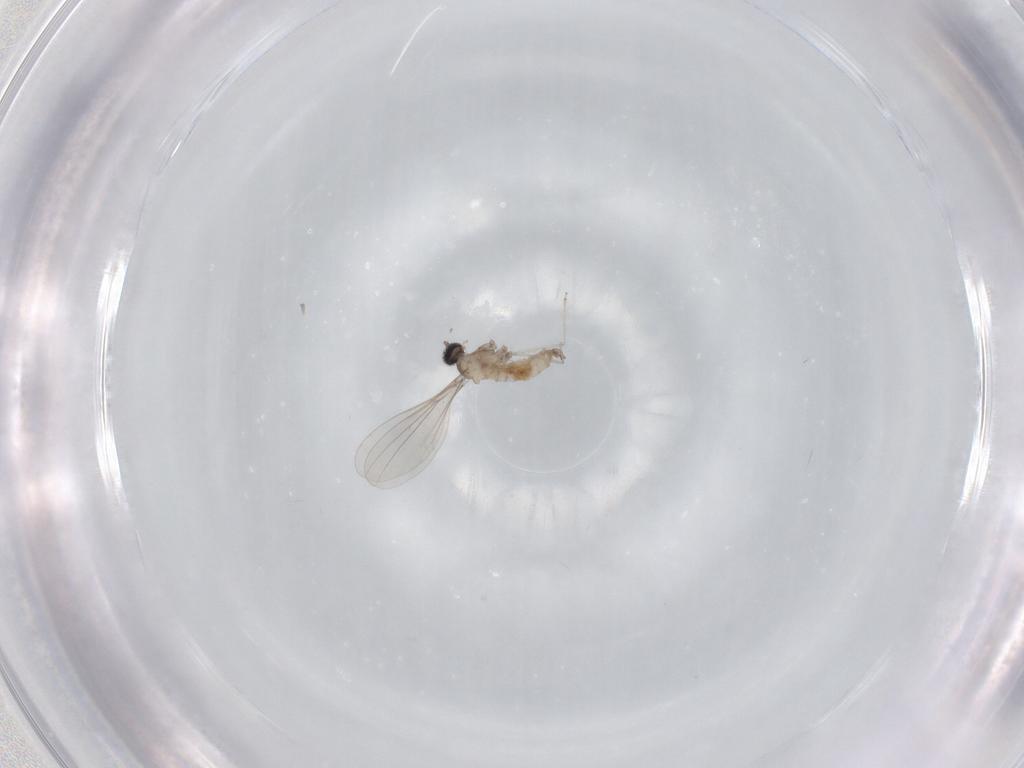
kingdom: Animalia
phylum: Arthropoda
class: Insecta
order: Diptera
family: Cecidomyiidae
